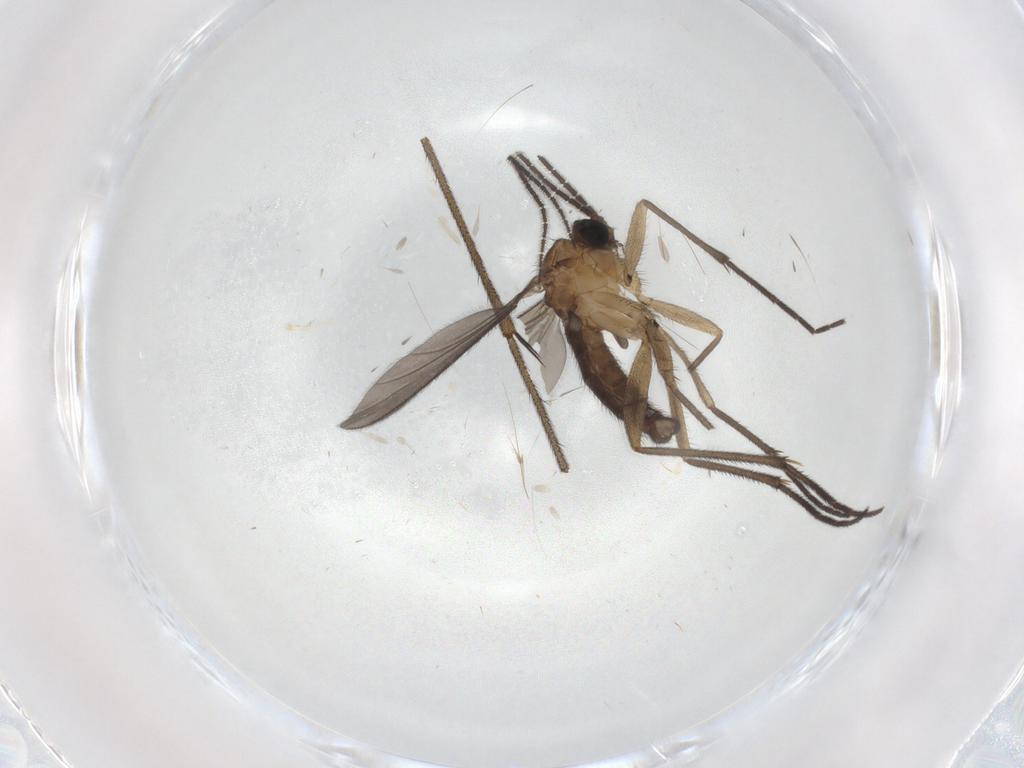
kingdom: Animalia
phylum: Arthropoda
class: Insecta
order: Diptera
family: Ditomyiidae
